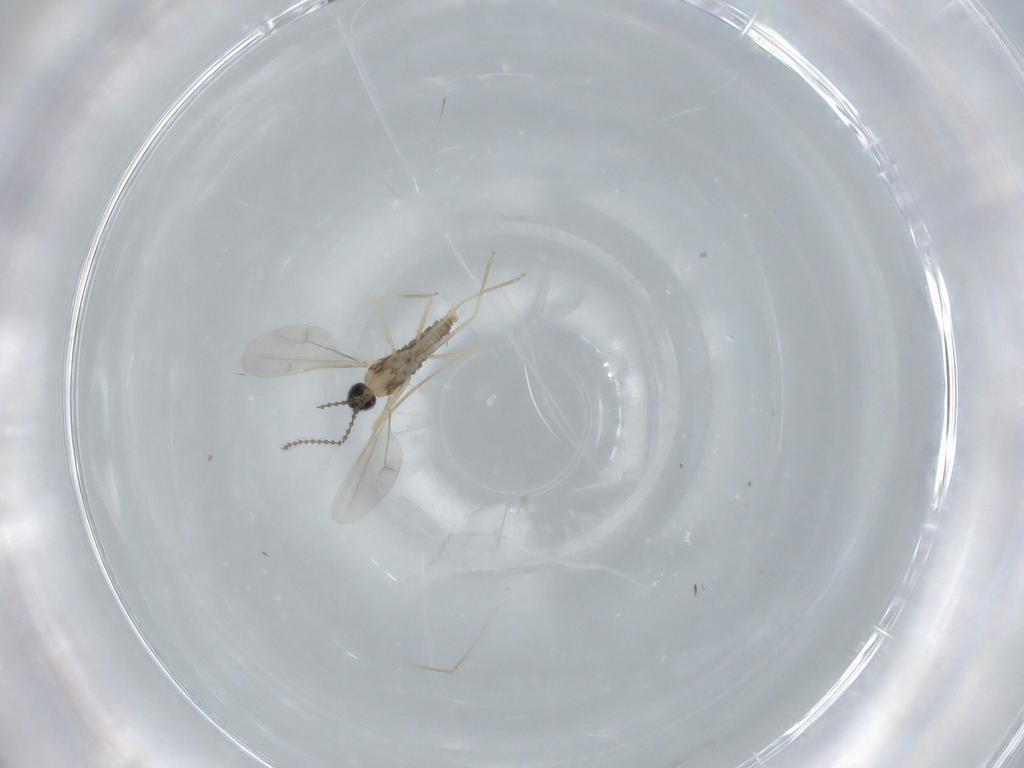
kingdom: Animalia
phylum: Arthropoda
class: Insecta
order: Diptera
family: Cecidomyiidae
